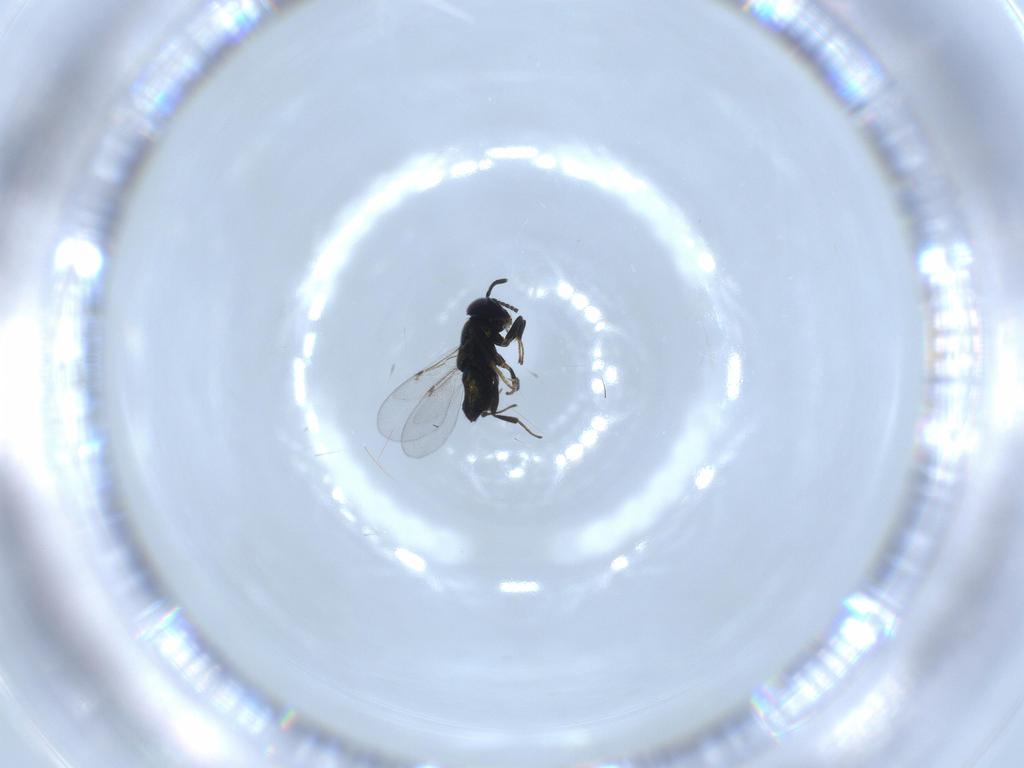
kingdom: Animalia
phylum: Arthropoda
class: Insecta
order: Hymenoptera
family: Encyrtidae
